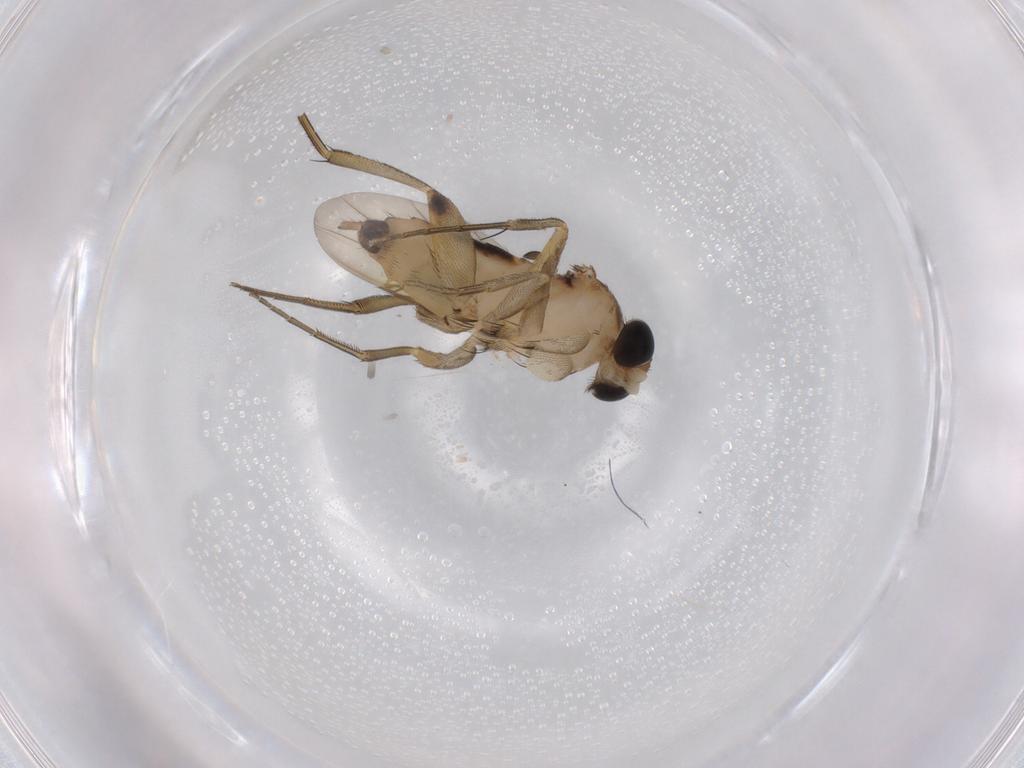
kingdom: Animalia
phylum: Arthropoda
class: Insecta
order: Diptera
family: Phoridae
